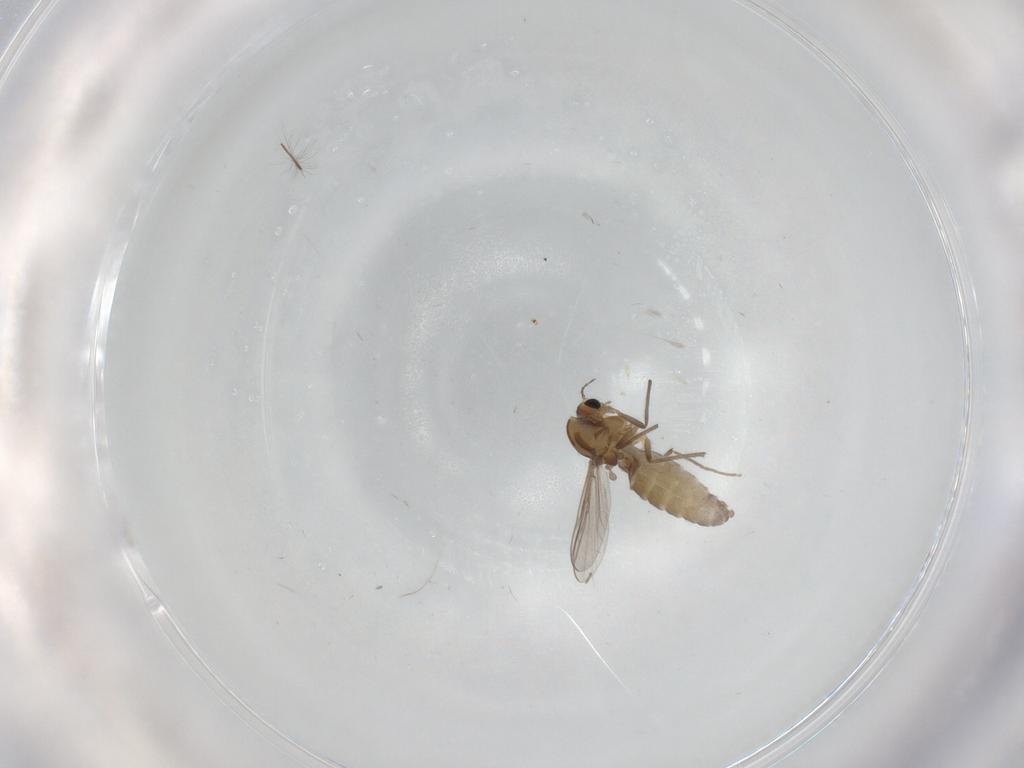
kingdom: Animalia
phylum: Arthropoda
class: Insecta
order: Diptera
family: Chironomidae
